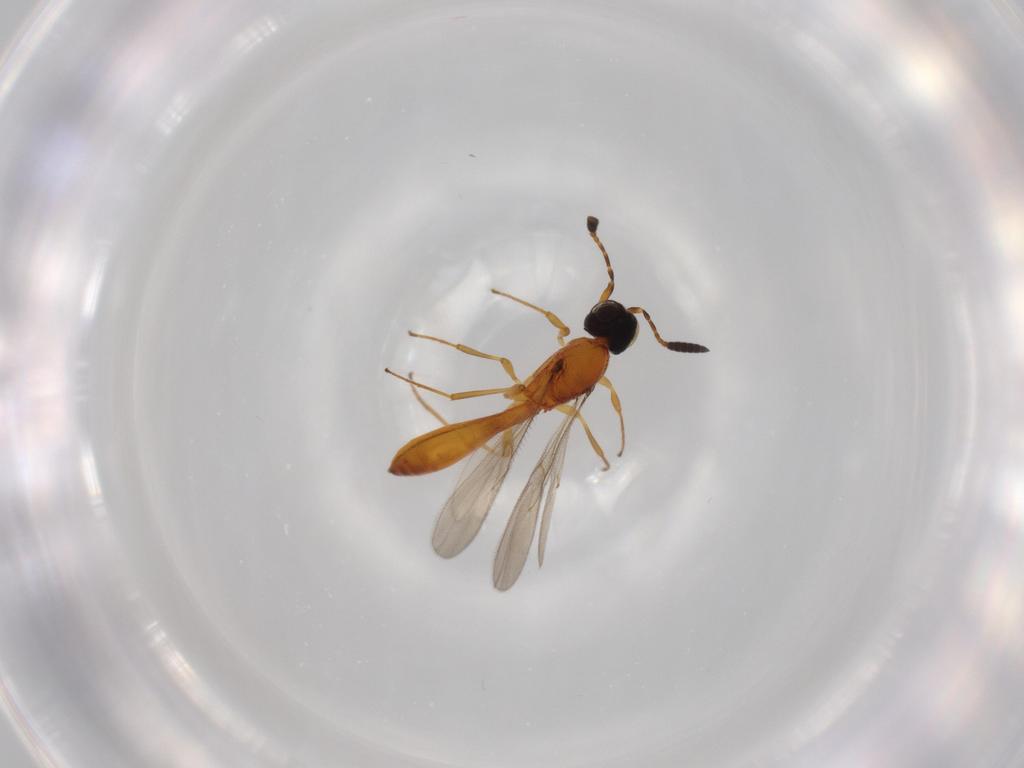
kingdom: Animalia
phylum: Arthropoda
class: Insecta
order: Hymenoptera
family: Scelionidae
